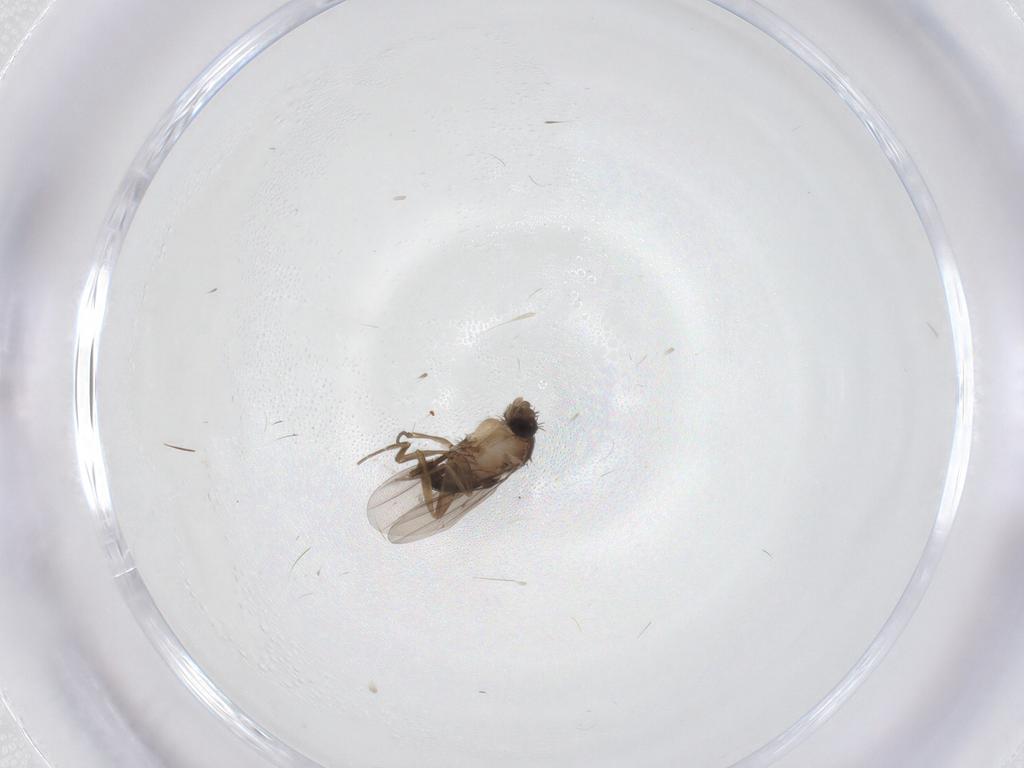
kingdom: Animalia
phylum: Arthropoda
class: Insecta
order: Diptera
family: Psychodidae
